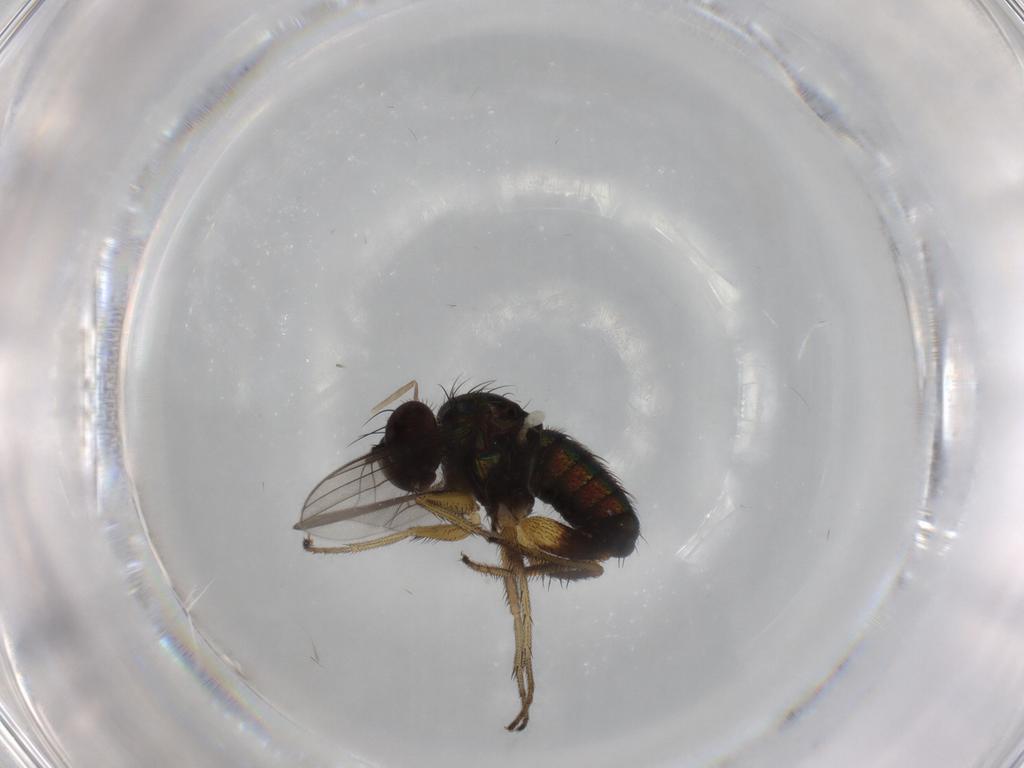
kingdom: Animalia
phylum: Arthropoda
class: Insecta
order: Diptera
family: Dolichopodidae
